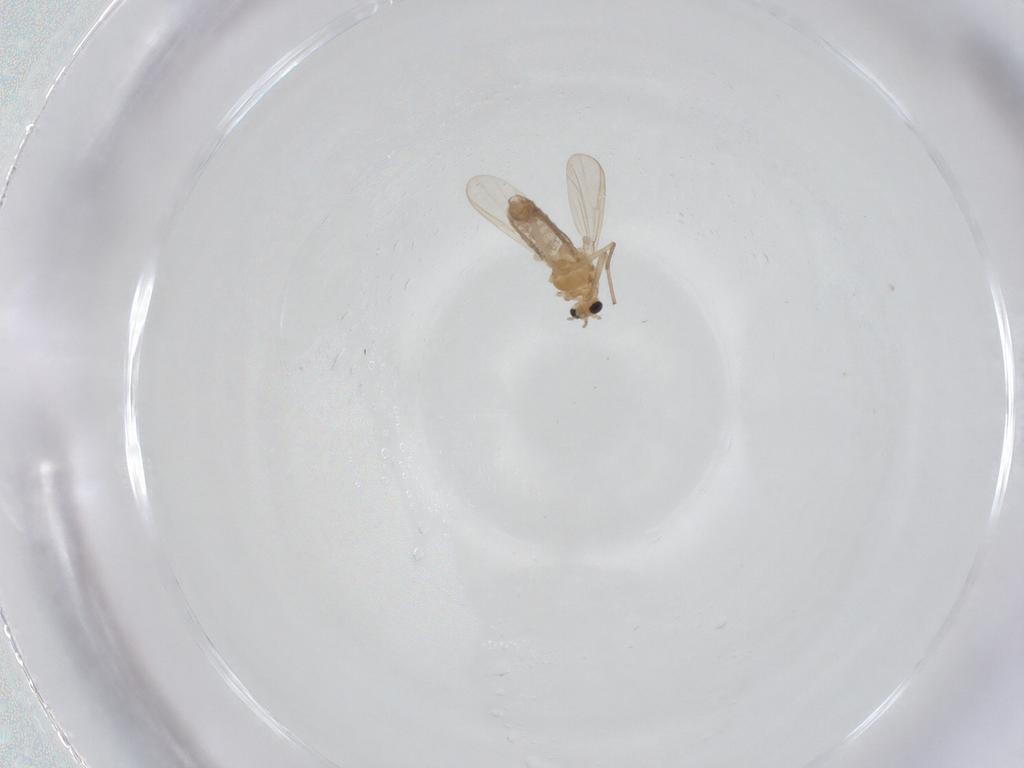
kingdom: Animalia
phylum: Arthropoda
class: Insecta
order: Diptera
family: Chironomidae
